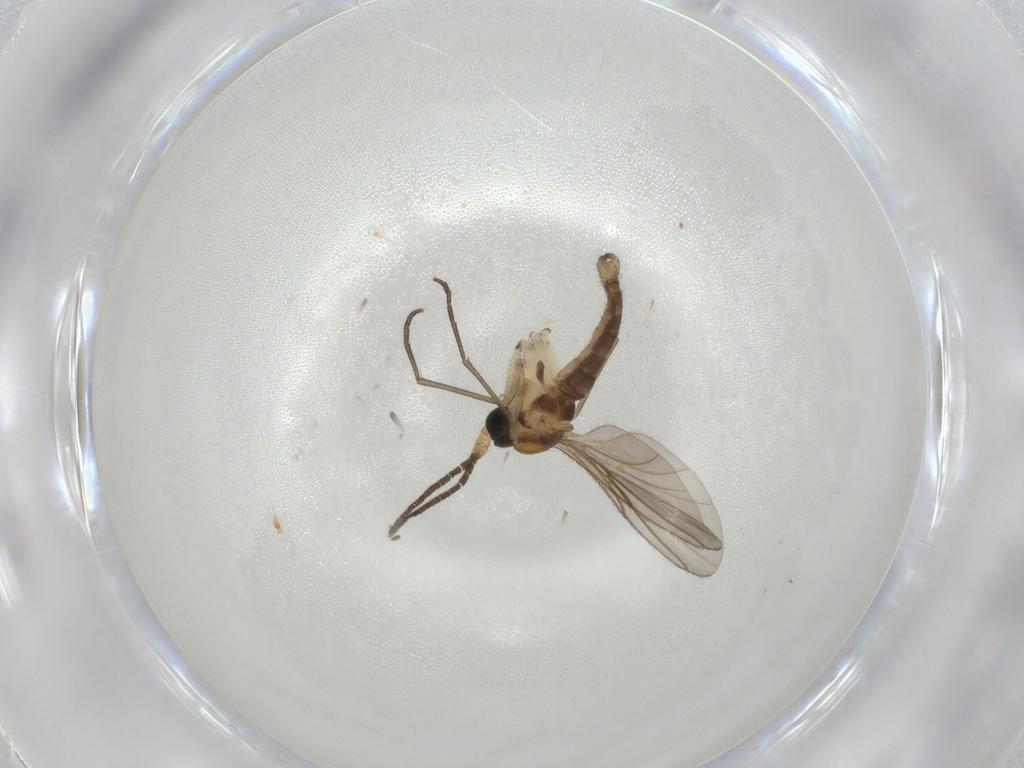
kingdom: Animalia
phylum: Arthropoda
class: Insecta
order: Diptera
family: Sciaridae
